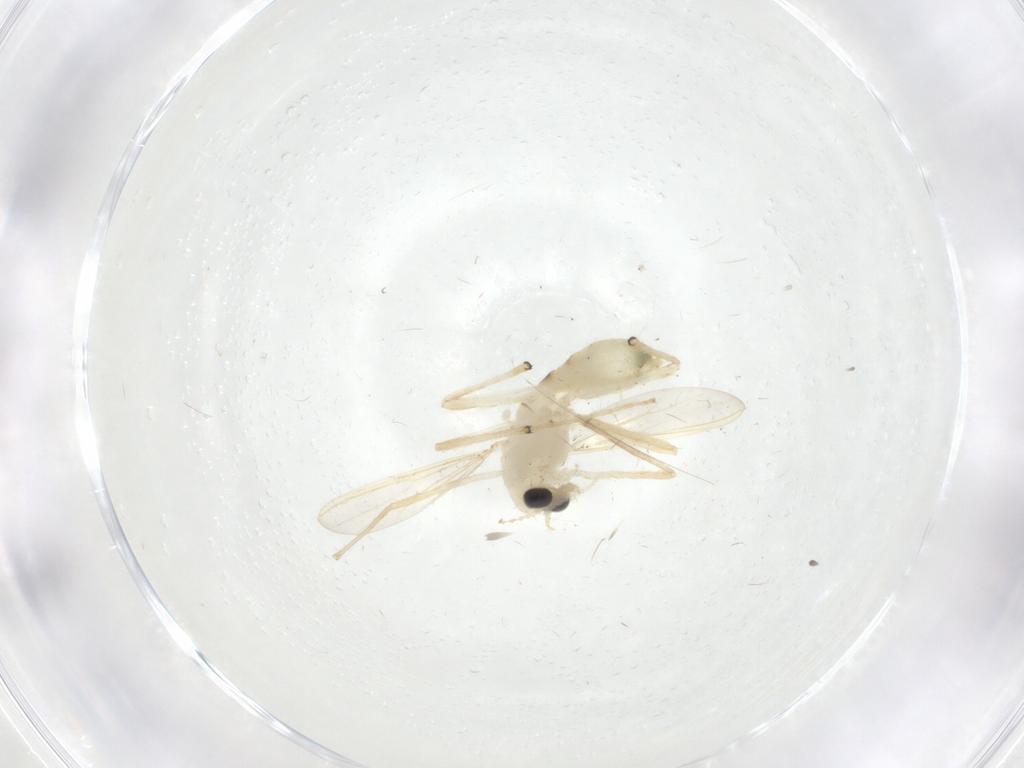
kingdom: Animalia
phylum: Arthropoda
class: Insecta
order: Diptera
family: Chironomidae
